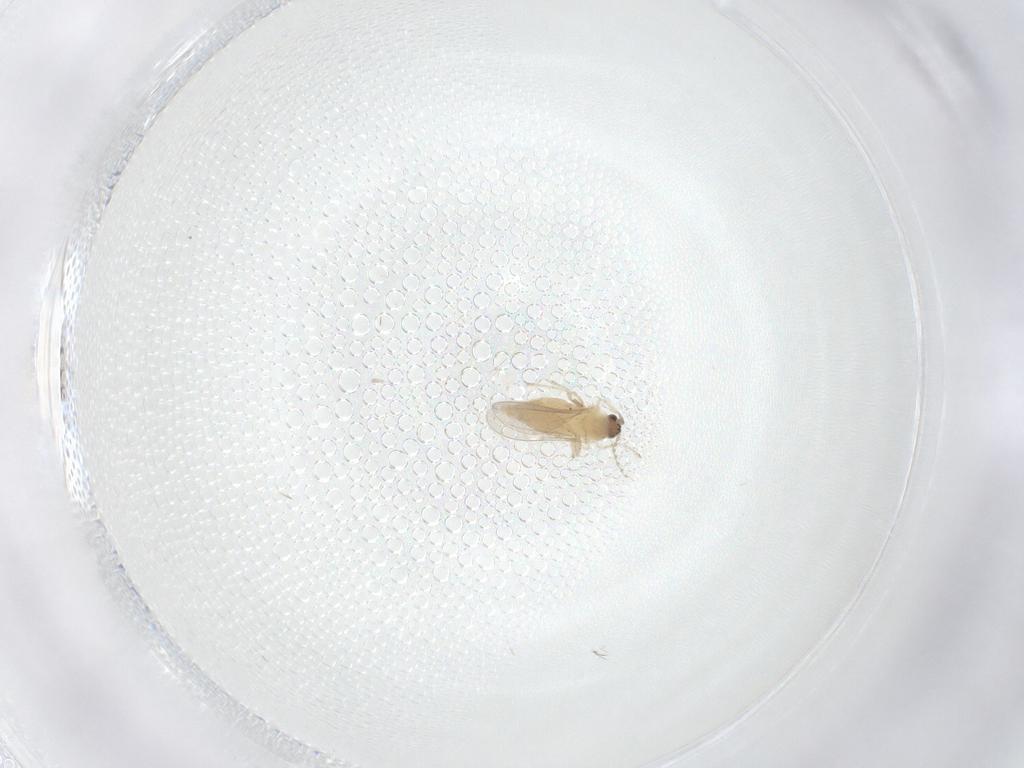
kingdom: Animalia
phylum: Arthropoda
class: Insecta
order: Diptera
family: Cecidomyiidae
